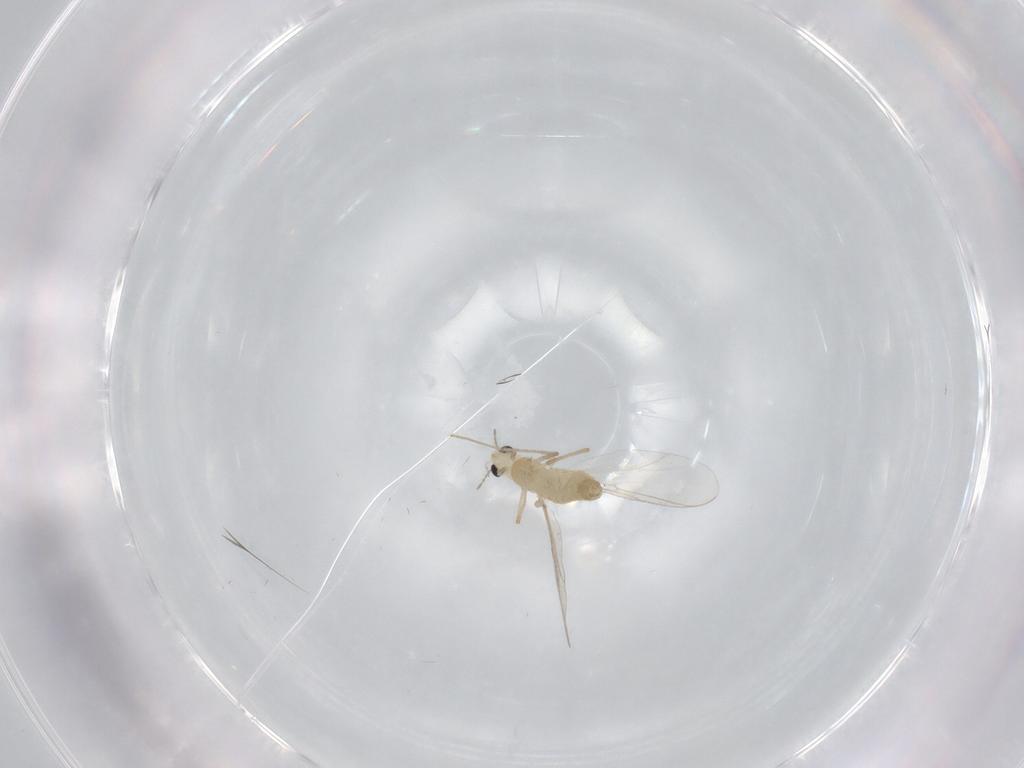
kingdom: Animalia
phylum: Arthropoda
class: Insecta
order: Diptera
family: Chironomidae
